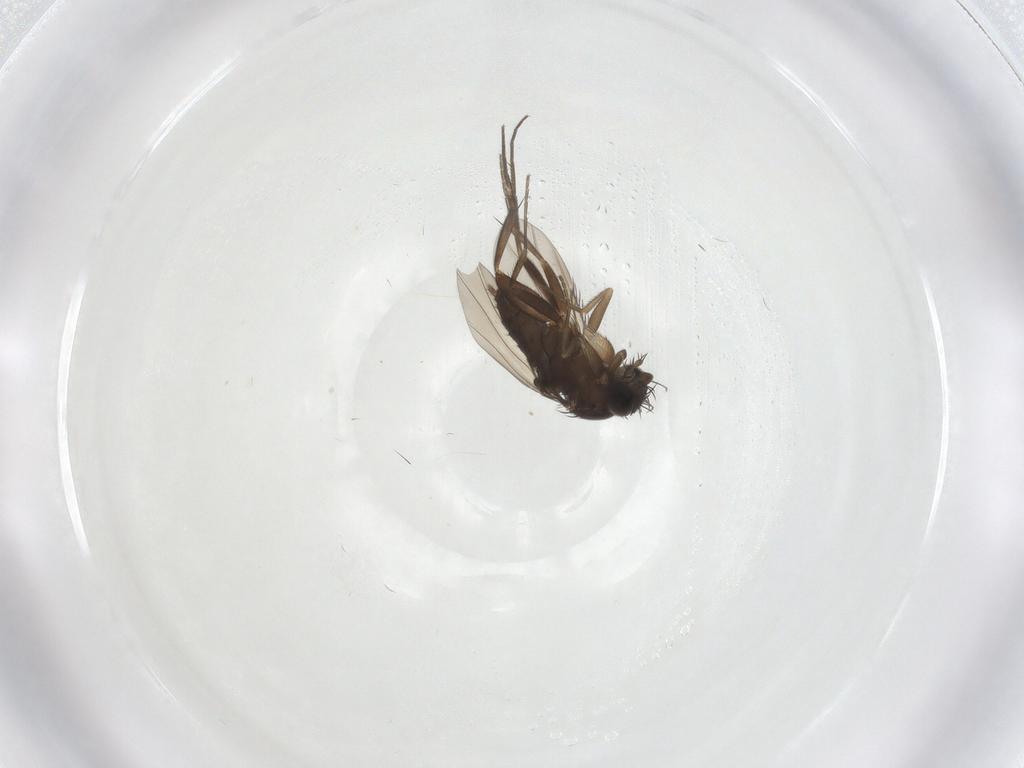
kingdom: Animalia
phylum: Arthropoda
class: Insecta
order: Diptera
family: Phoridae
